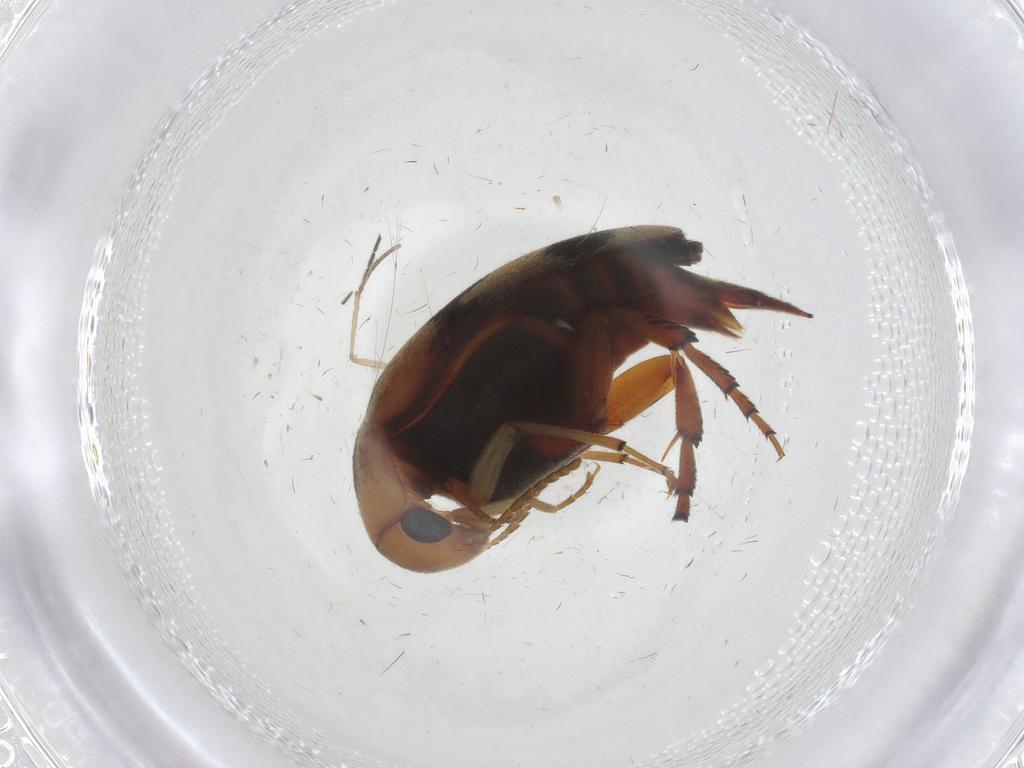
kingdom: Animalia
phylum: Arthropoda
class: Insecta
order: Coleoptera
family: Mordellidae
